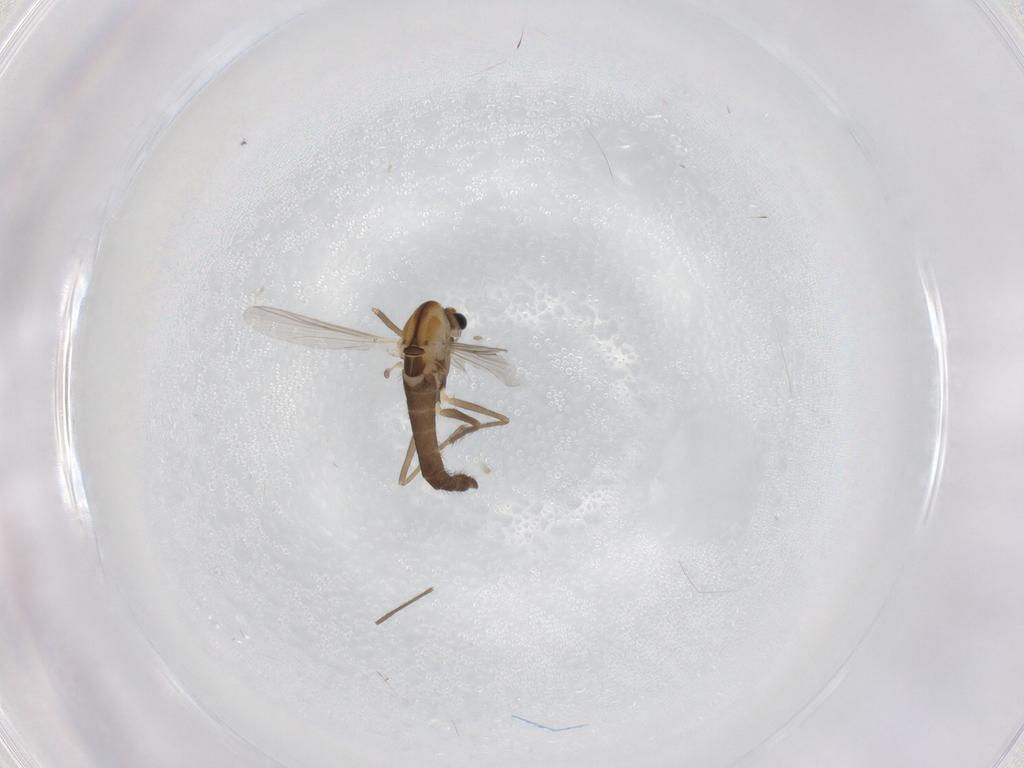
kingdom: Animalia
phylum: Arthropoda
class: Insecta
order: Diptera
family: Chironomidae
